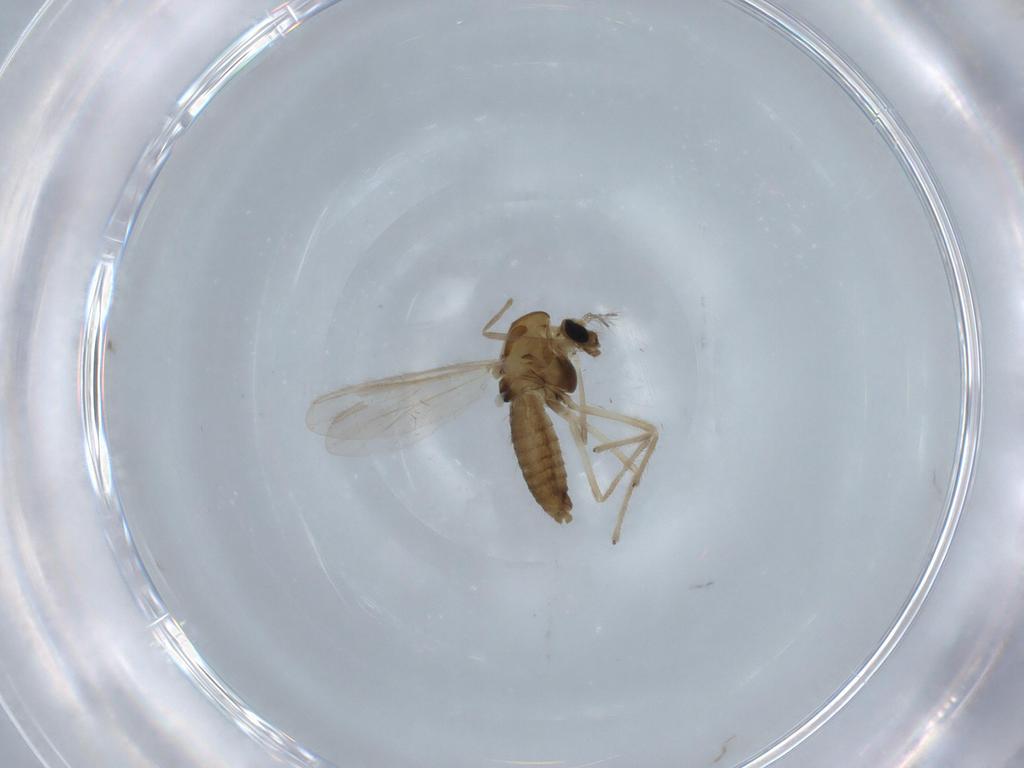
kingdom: Animalia
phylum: Arthropoda
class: Insecta
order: Diptera
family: Chironomidae
